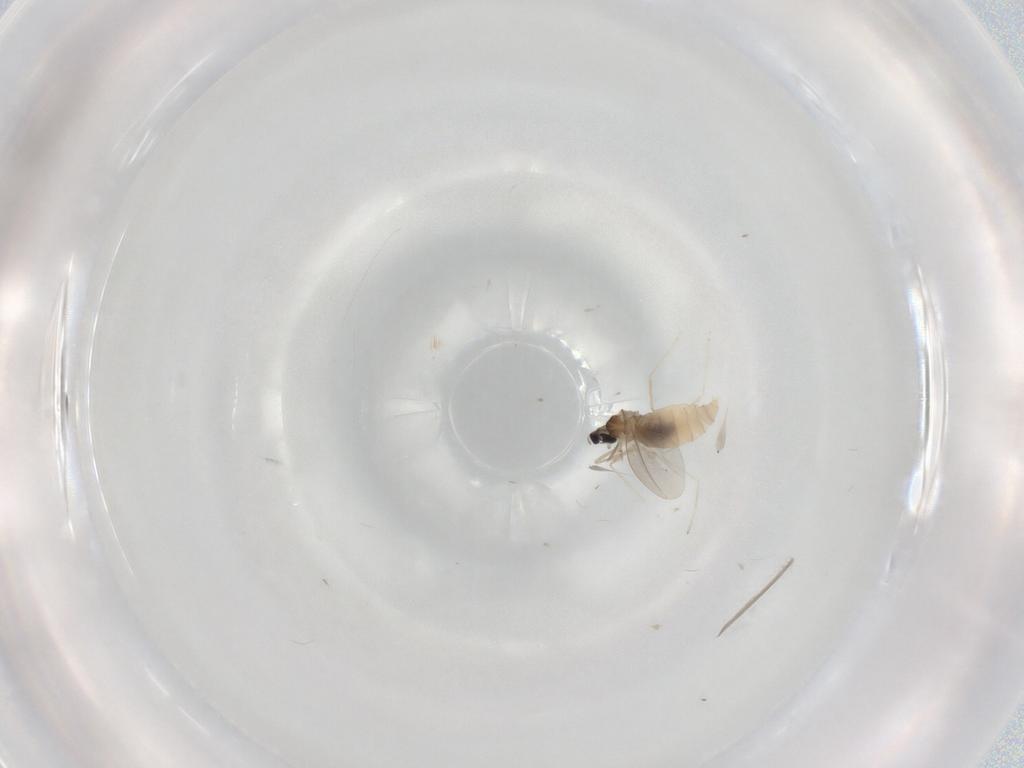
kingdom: Animalia
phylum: Arthropoda
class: Insecta
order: Diptera
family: Cecidomyiidae
